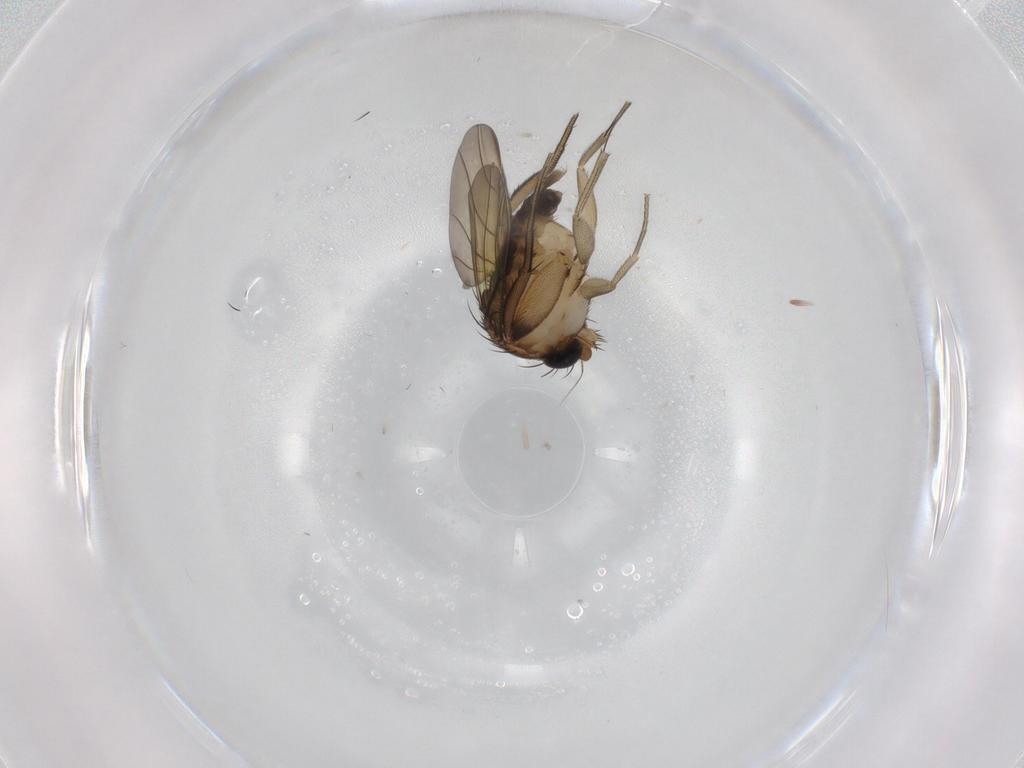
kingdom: Animalia
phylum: Arthropoda
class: Insecta
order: Diptera
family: Phoridae
